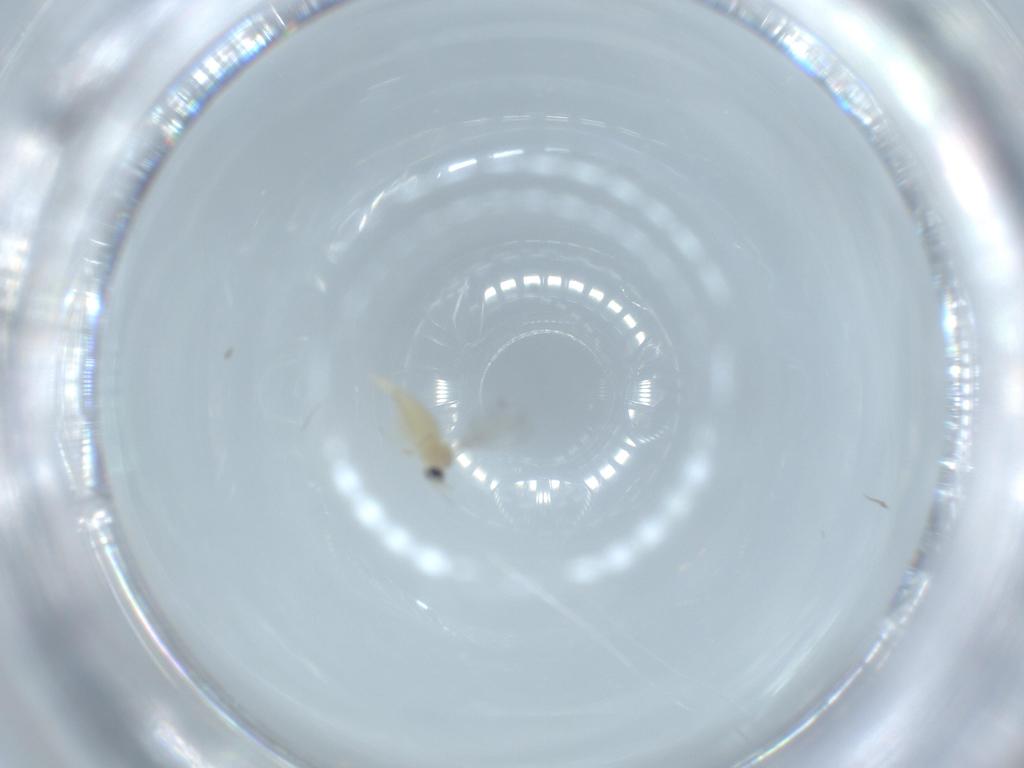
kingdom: Animalia
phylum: Arthropoda
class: Insecta
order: Diptera
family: Cecidomyiidae
